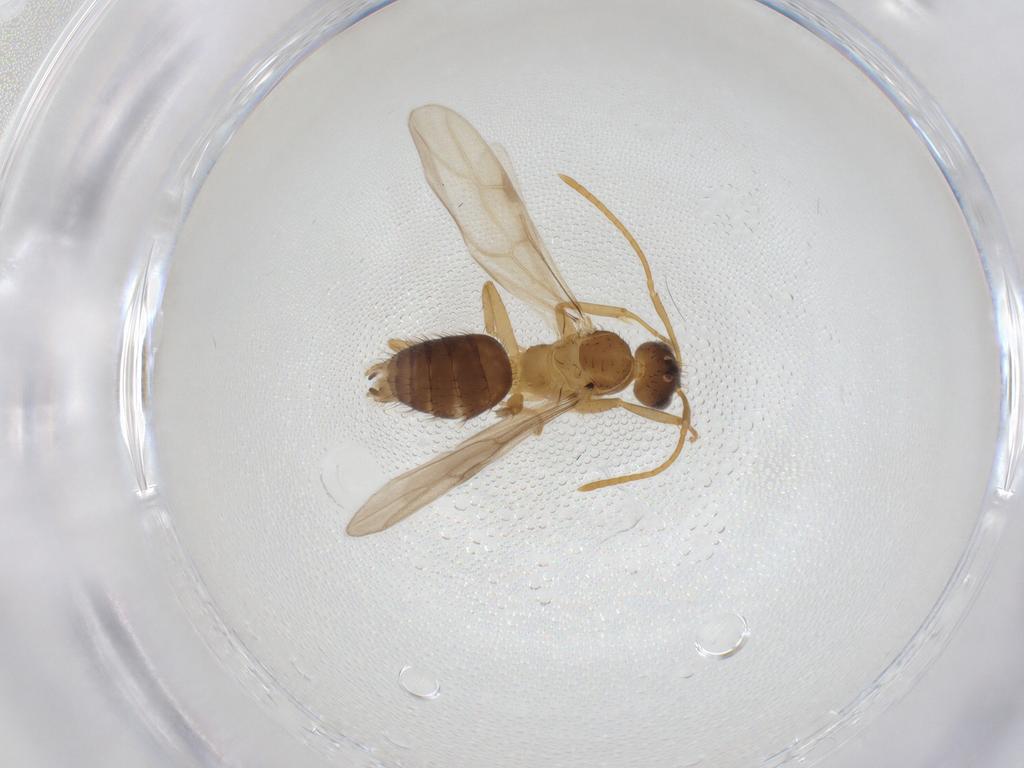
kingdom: Animalia
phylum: Arthropoda
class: Insecta
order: Hymenoptera
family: Formicidae
